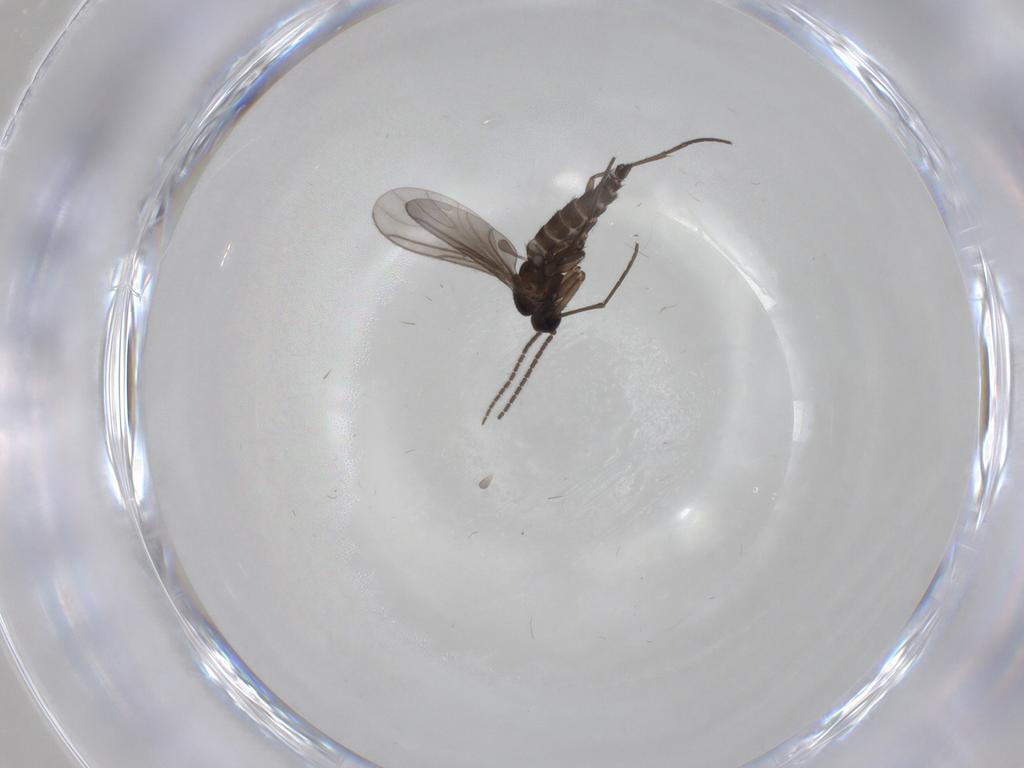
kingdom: Animalia
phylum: Arthropoda
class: Insecta
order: Diptera
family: Sciaridae
